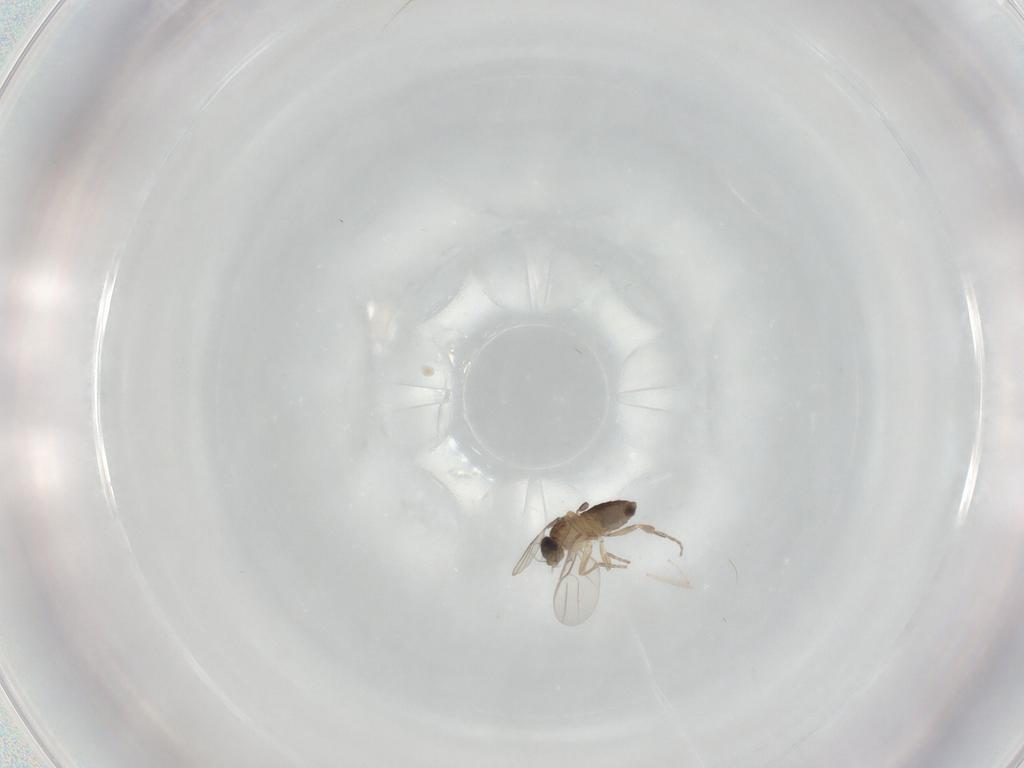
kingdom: Animalia
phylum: Arthropoda
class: Insecta
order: Diptera
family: Phoridae
